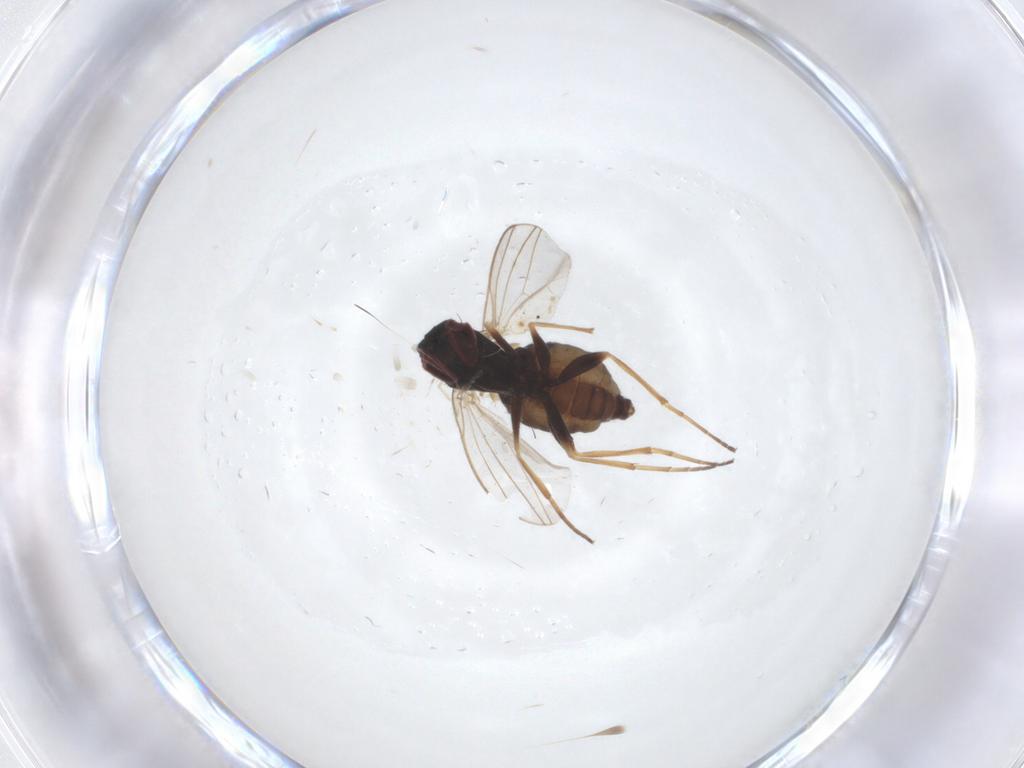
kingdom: Animalia
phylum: Arthropoda
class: Insecta
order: Diptera
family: Dolichopodidae
